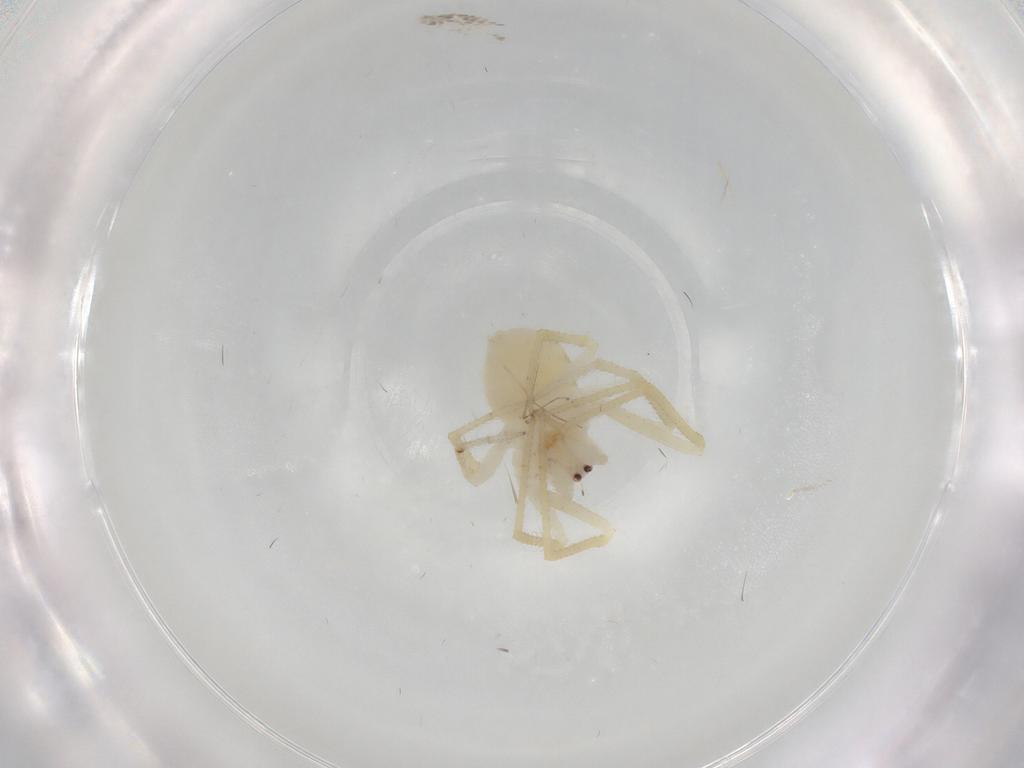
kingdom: Animalia
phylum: Arthropoda
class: Arachnida
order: Araneae
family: Theridiidae
